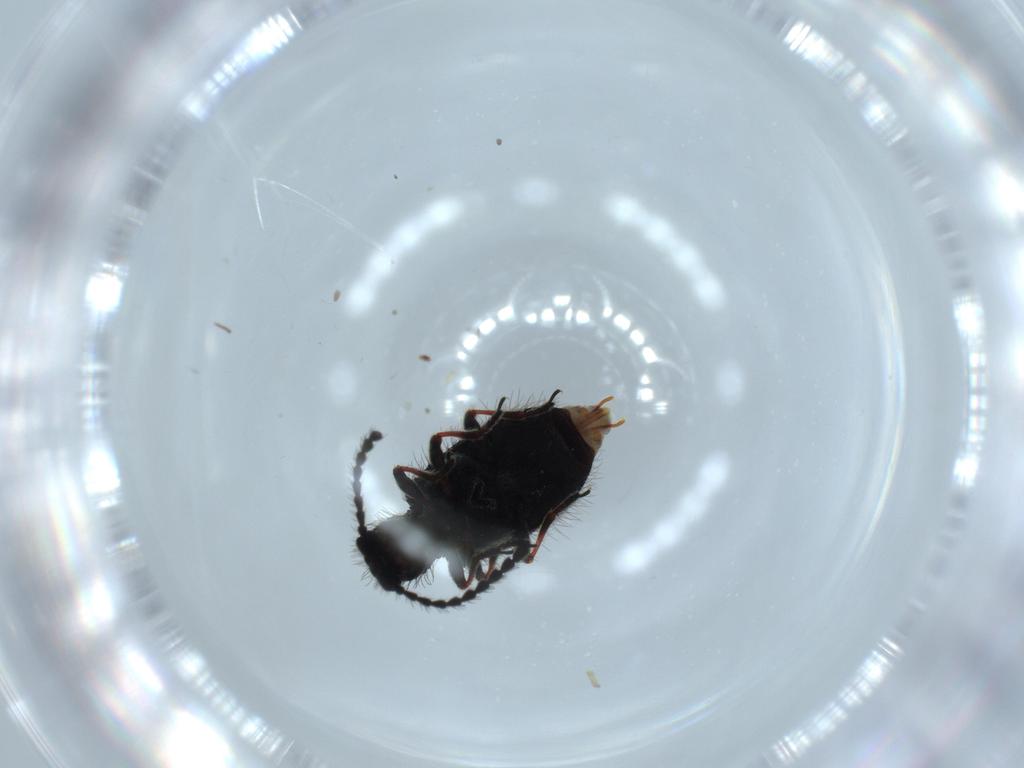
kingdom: Animalia
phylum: Arthropoda
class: Insecta
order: Coleoptera
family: Ptinidae
